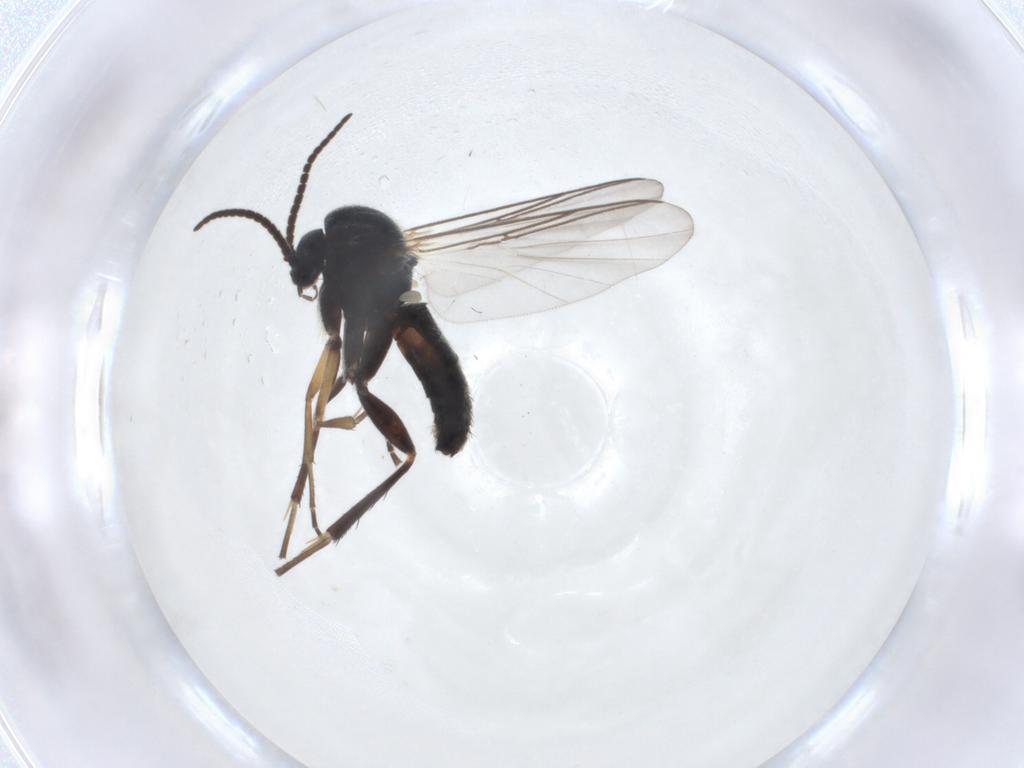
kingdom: Animalia
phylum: Arthropoda
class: Insecta
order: Diptera
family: Mycetophilidae
